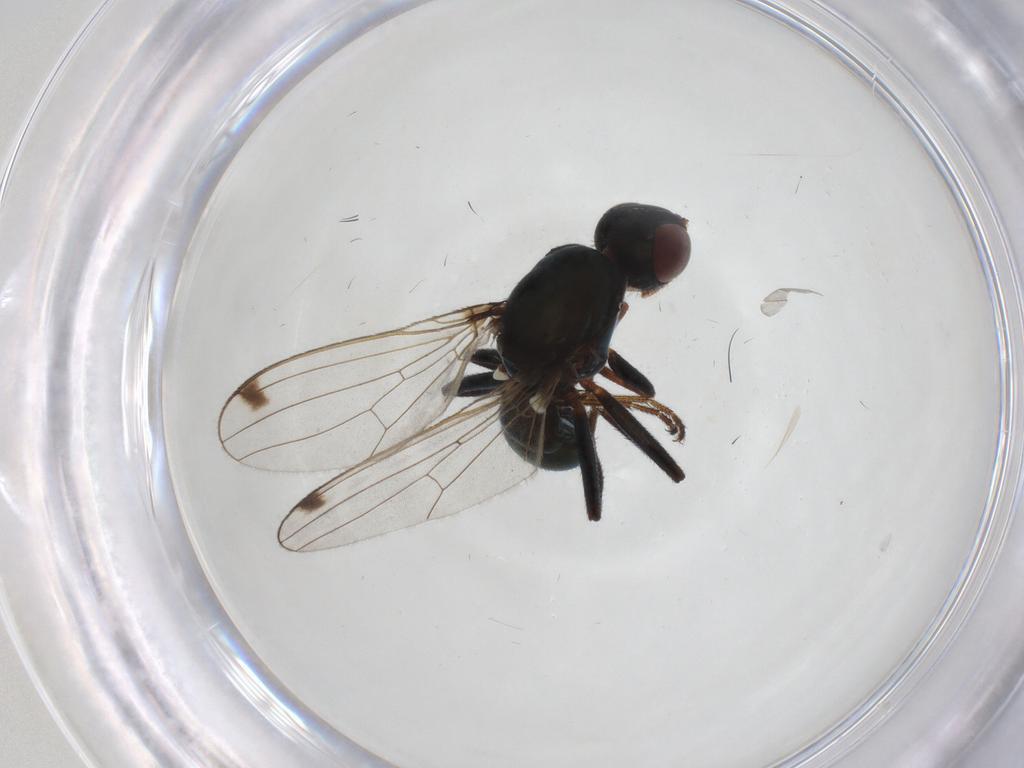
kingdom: Animalia
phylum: Arthropoda
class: Insecta
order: Diptera
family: Sepsidae
